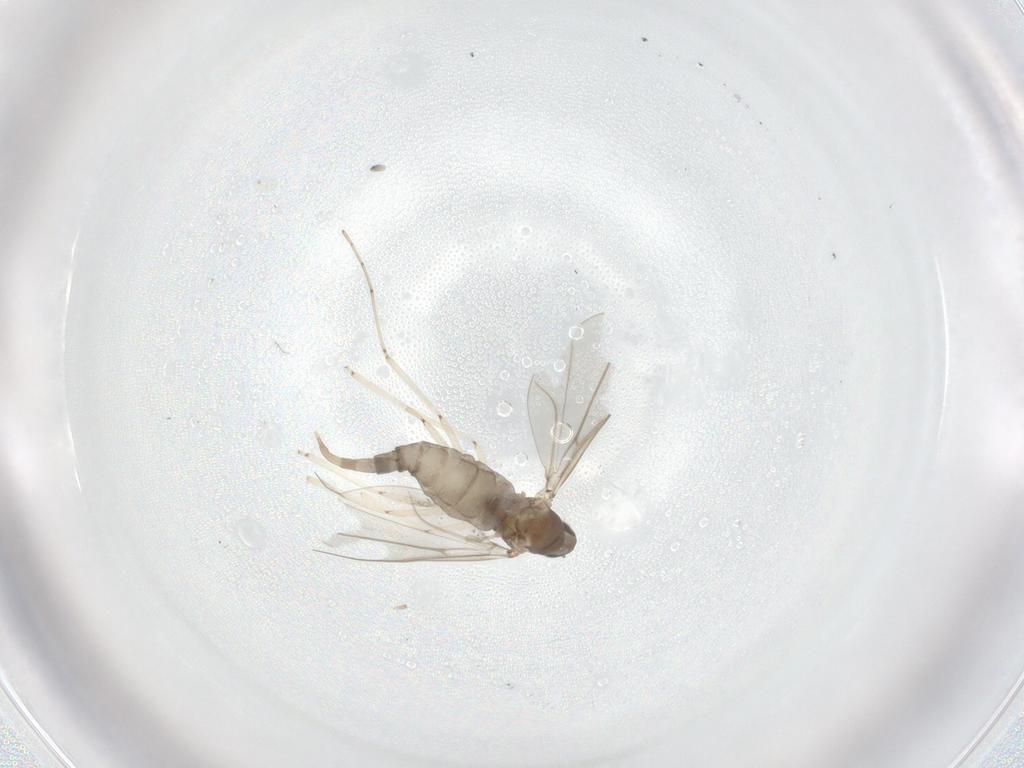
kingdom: Animalia
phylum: Arthropoda
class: Insecta
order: Diptera
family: Cecidomyiidae
